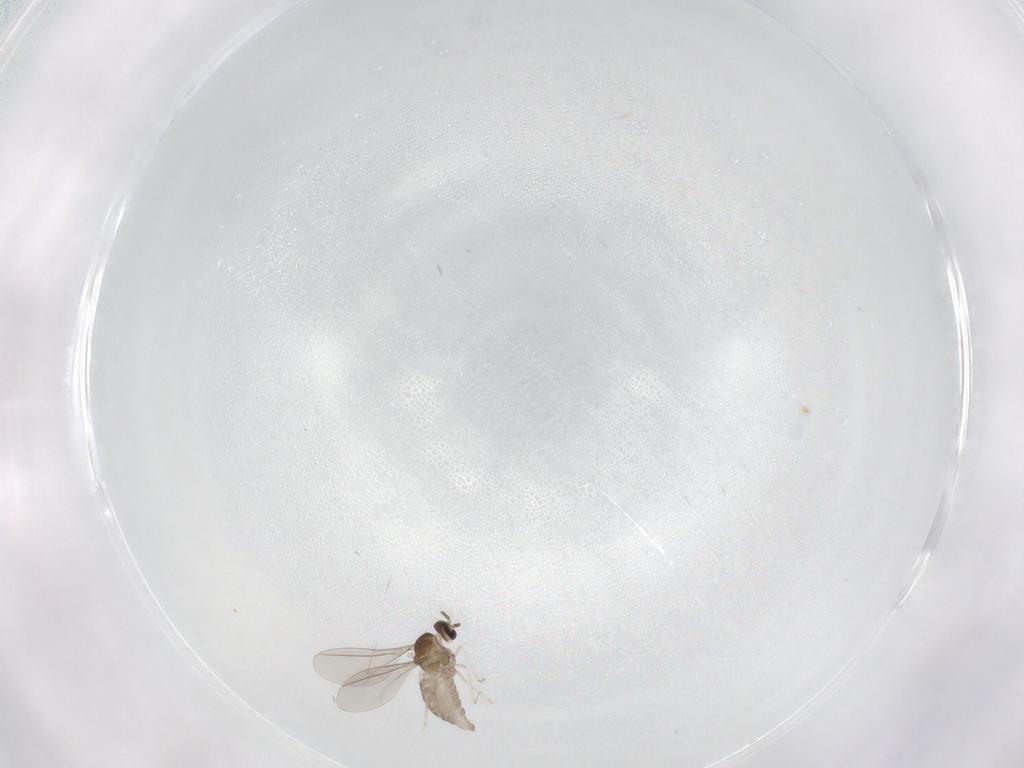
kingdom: Animalia
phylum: Arthropoda
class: Insecta
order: Diptera
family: Cecidomyiidae
